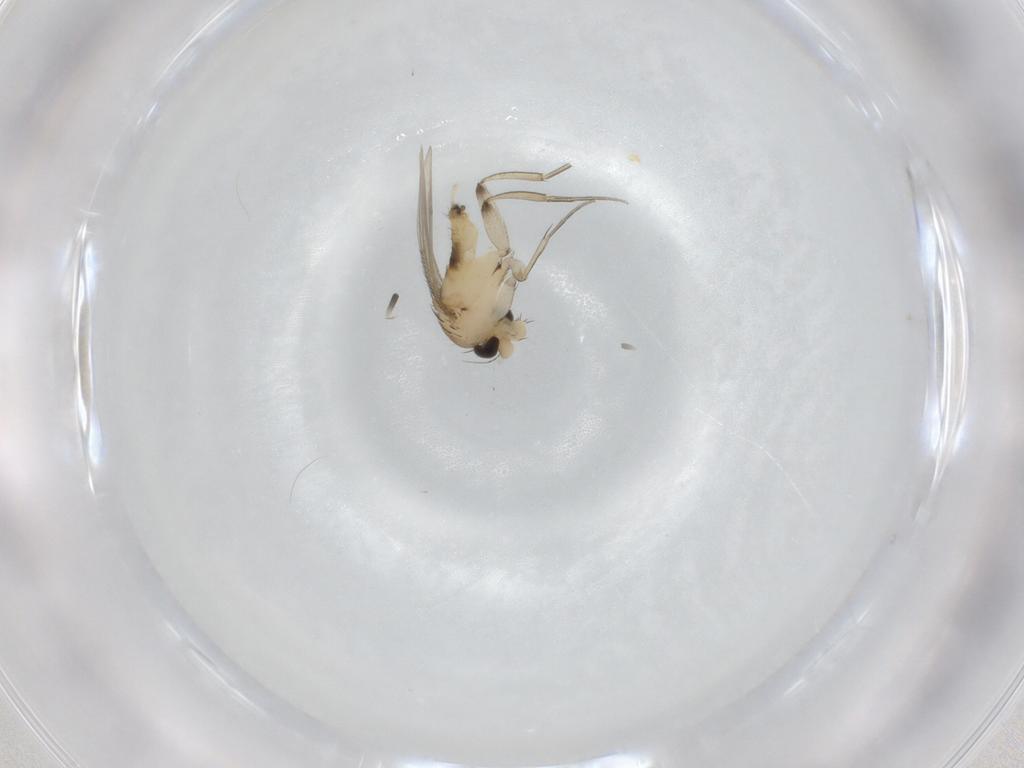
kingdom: Animalia
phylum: Arthropoda
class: Insecta
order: Diptera
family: Phoridae
